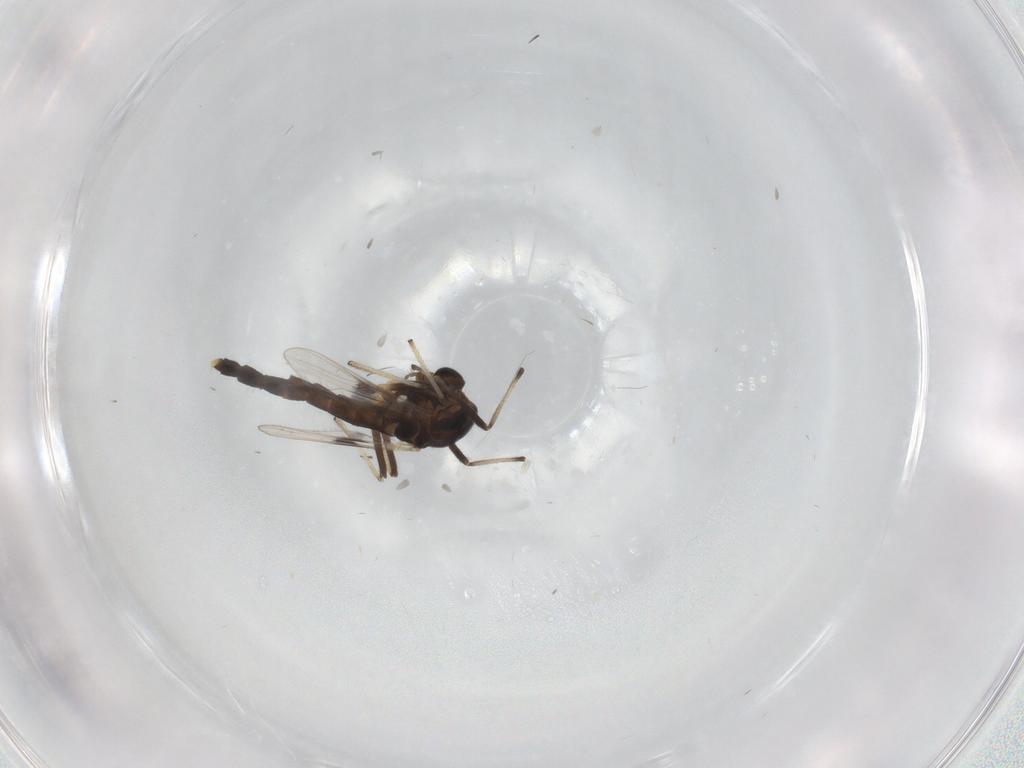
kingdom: Animalia
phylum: Arthropoda
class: Insecta
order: Diptera
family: Chironomidae
